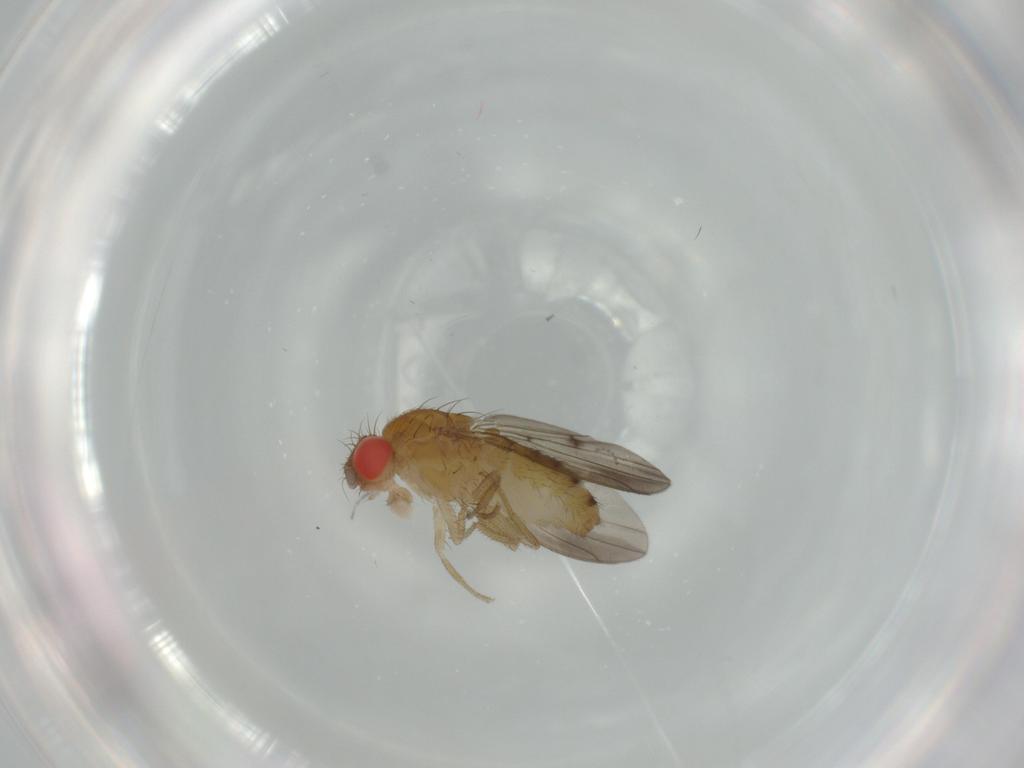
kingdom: Animalia
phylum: Arthropoda
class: Insecta
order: Diptera
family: Drosophilidae
